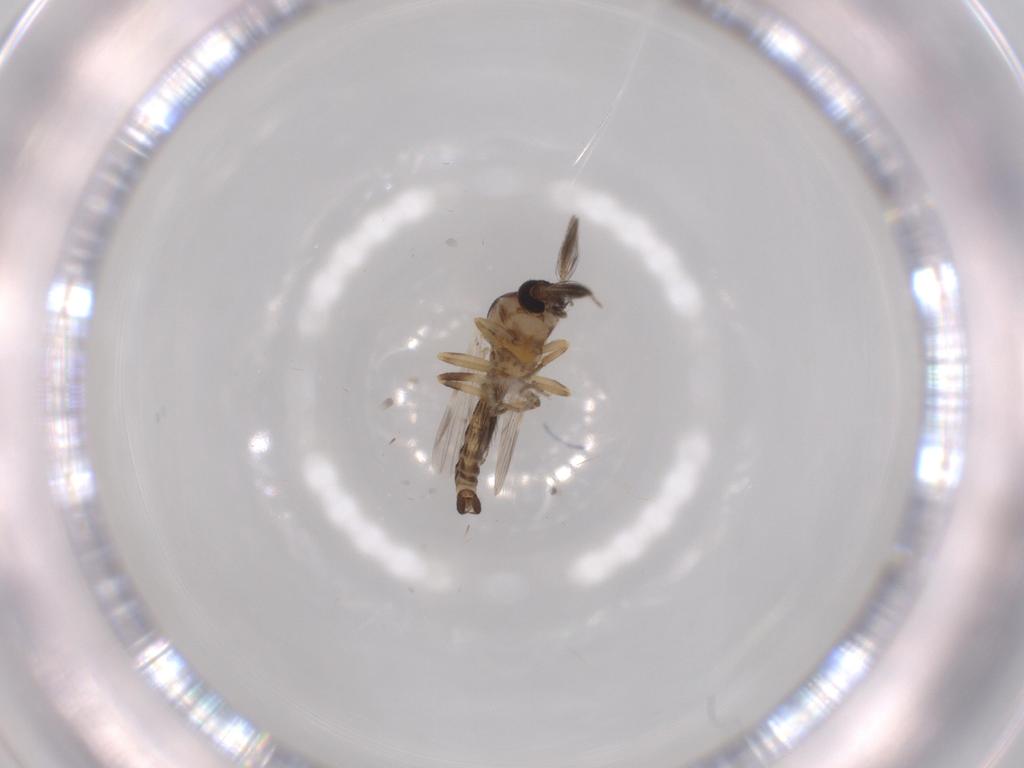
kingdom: Animalia
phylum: Arthropoda
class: Insecta
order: Diptera
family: Ceratopogonidae
